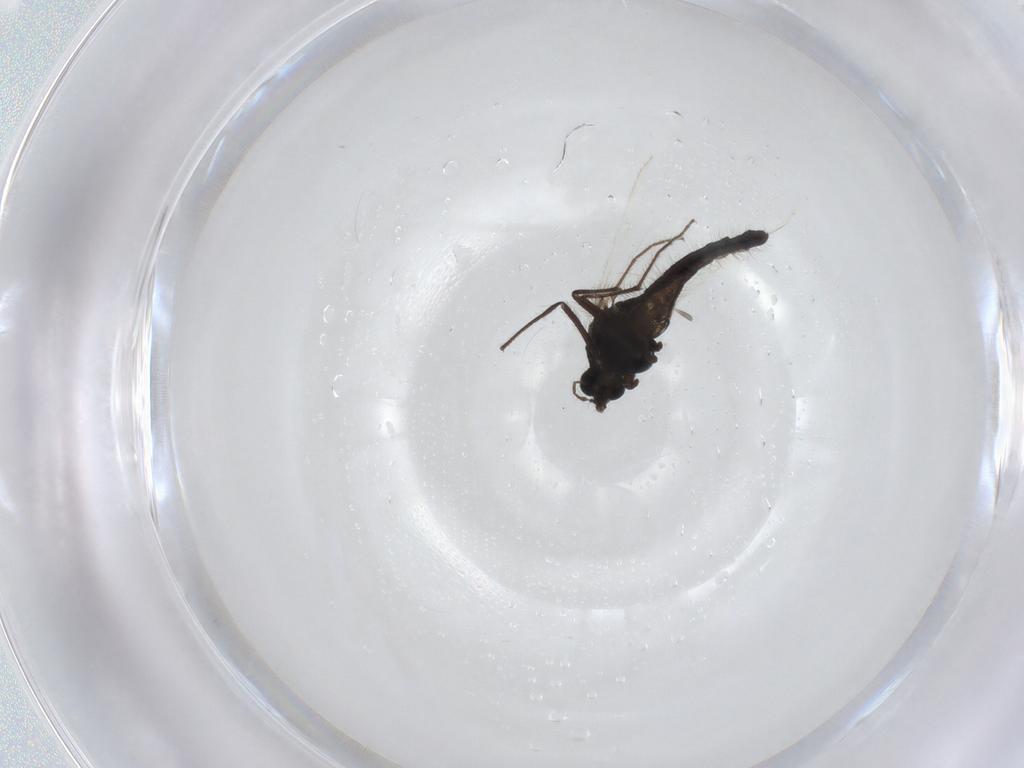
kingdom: Animalia
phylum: Arthropoda
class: Insecta
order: Diptera
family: Chironomidae
